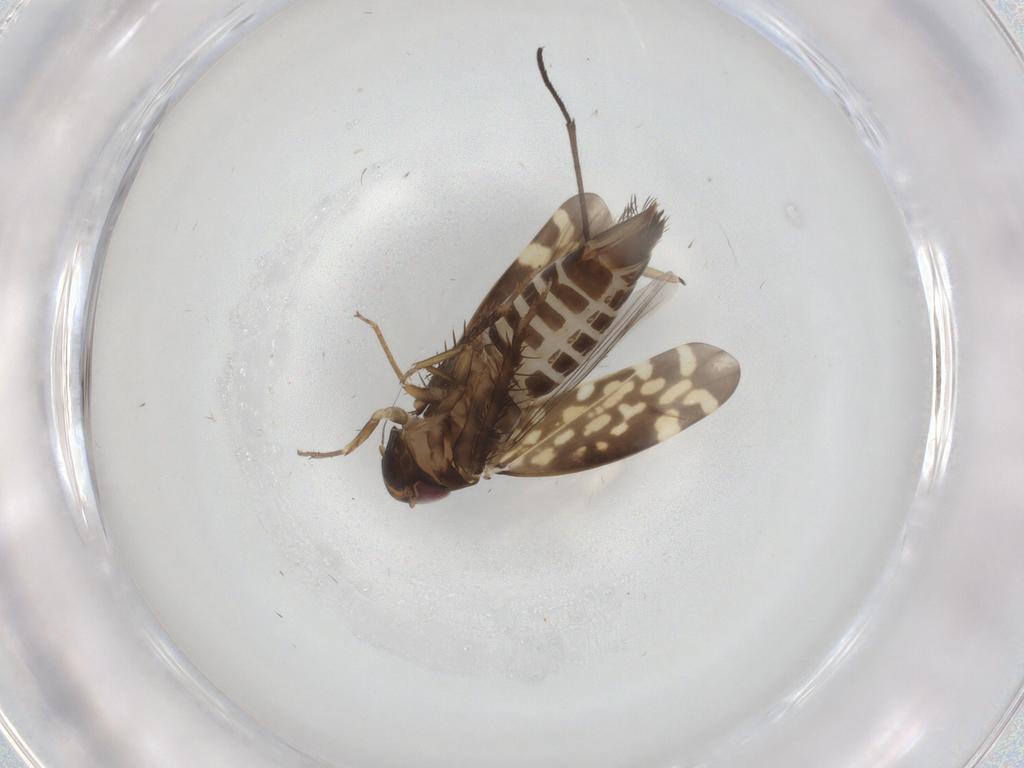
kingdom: Animalia
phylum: Arthropoda
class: Insecta
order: Hemiptera
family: Cicadellidae
